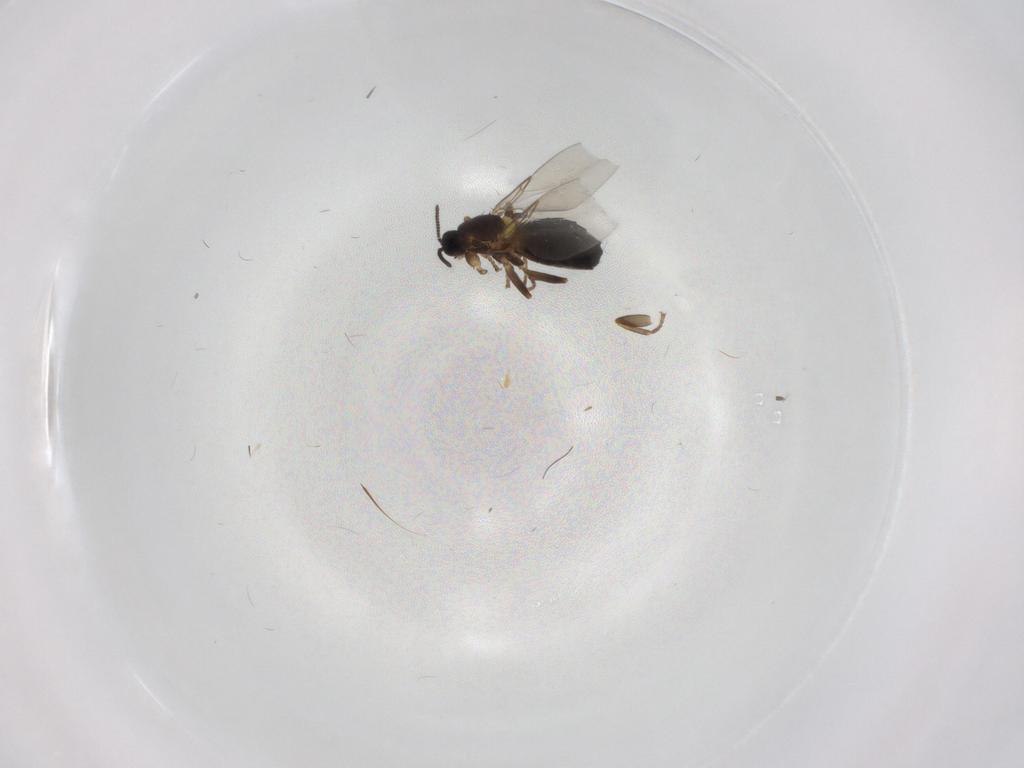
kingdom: Animalia
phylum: Arthropoda
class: Insecta
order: Diptera
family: Scatopsidae
